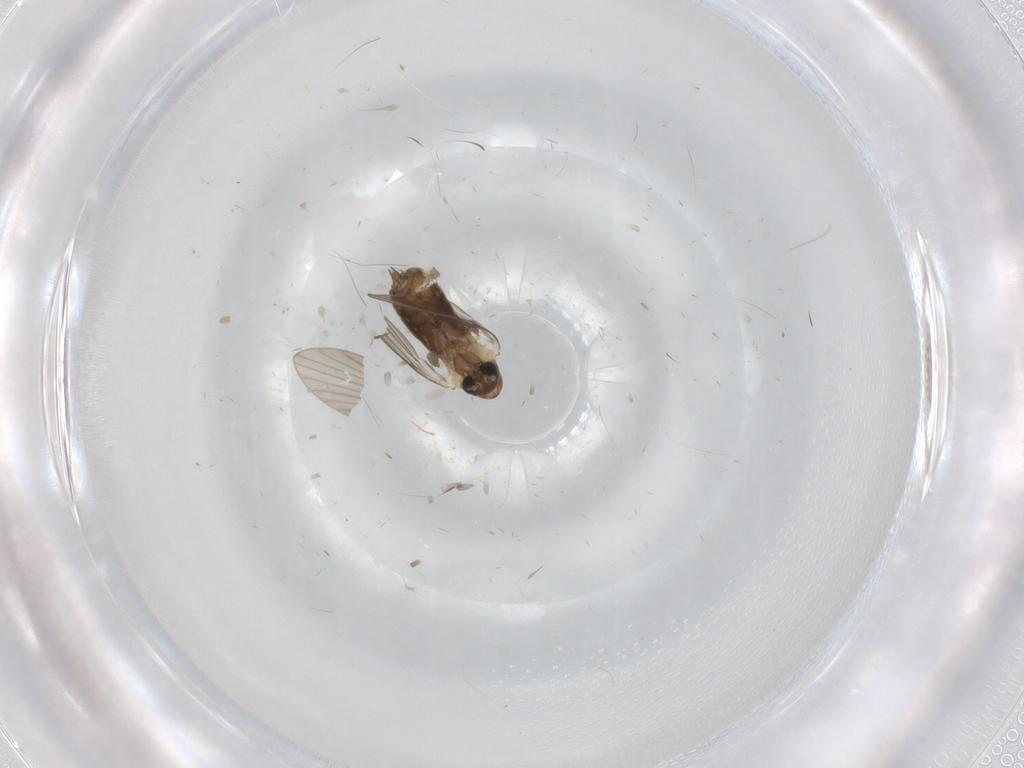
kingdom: Animalia
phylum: Arthropoda
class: Insecta
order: Diptera
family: Psychodidae
